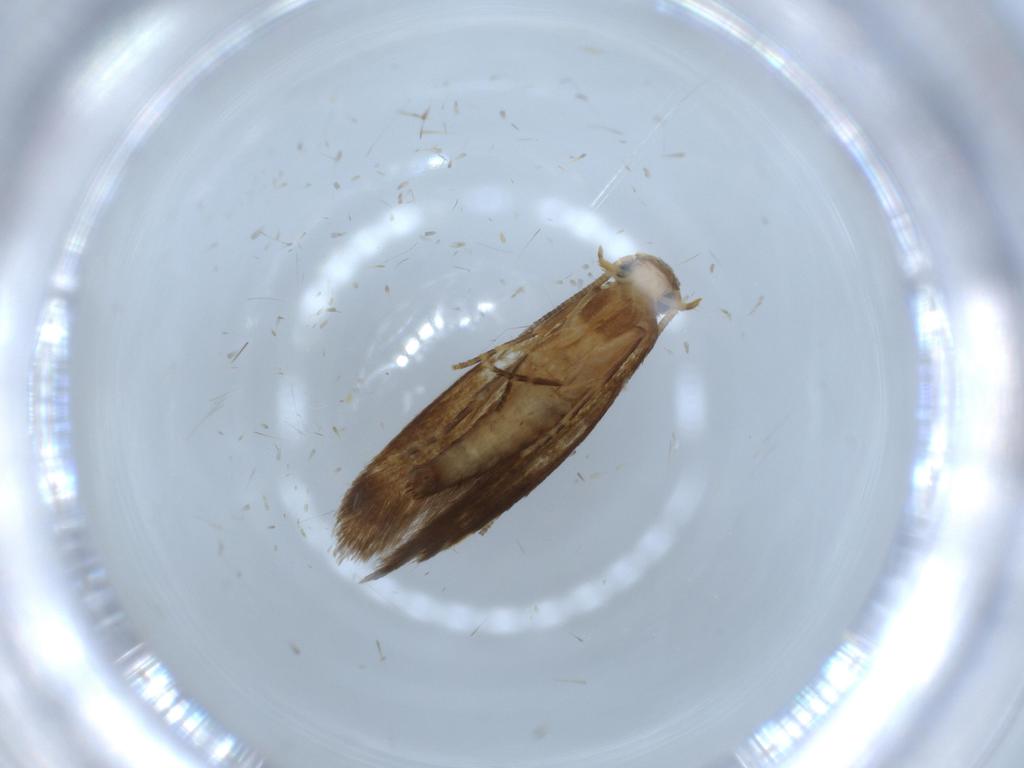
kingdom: Animalia
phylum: Arthropoda
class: Insecta
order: Lepidoptera
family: Tineidae
